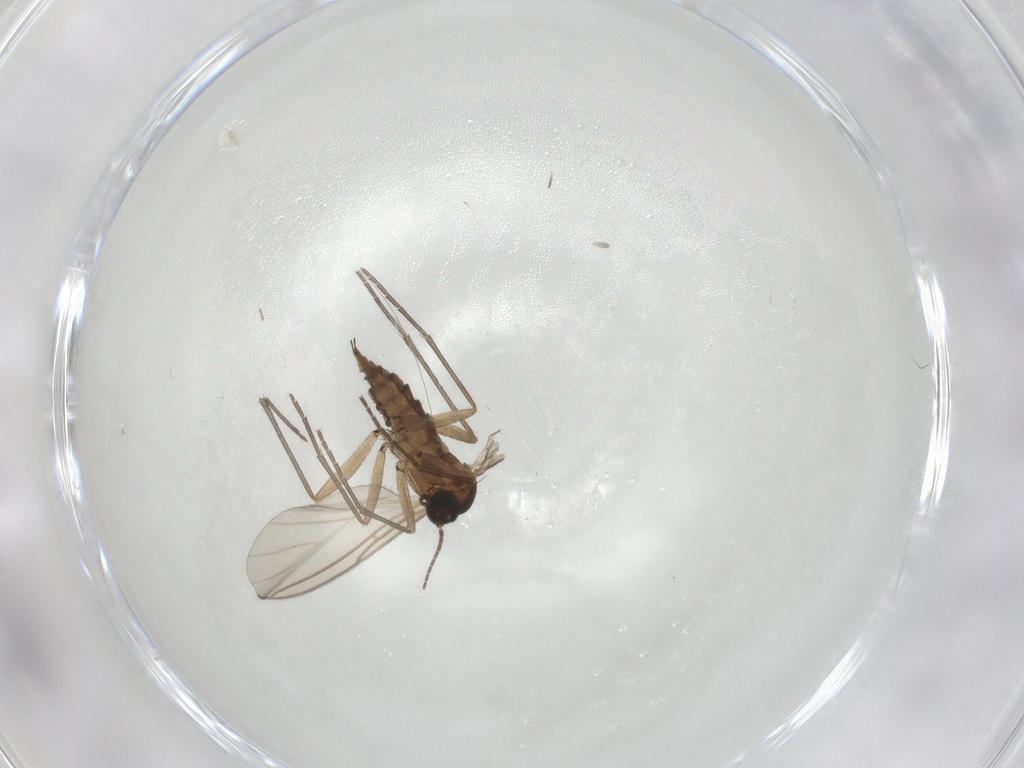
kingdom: Animalia
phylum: Arthropoda
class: Insecta
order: Diptera
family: Sciaridae
